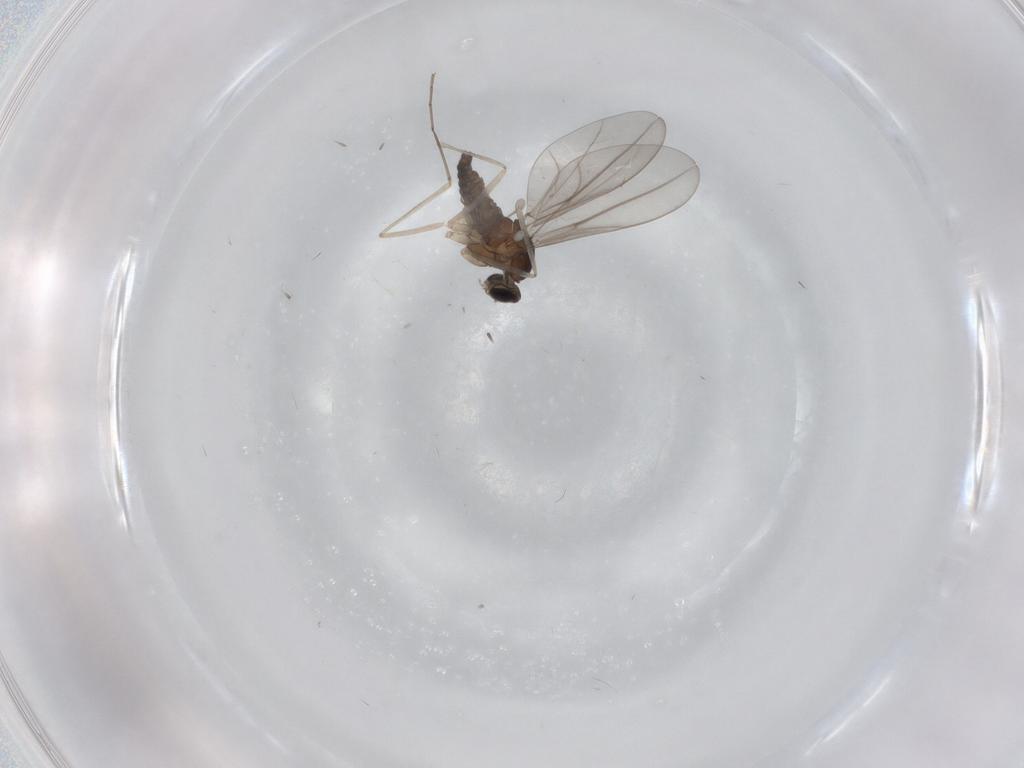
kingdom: Animalia
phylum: Arthropoda
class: Insecta
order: Diptera
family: Cecidomyiidae
